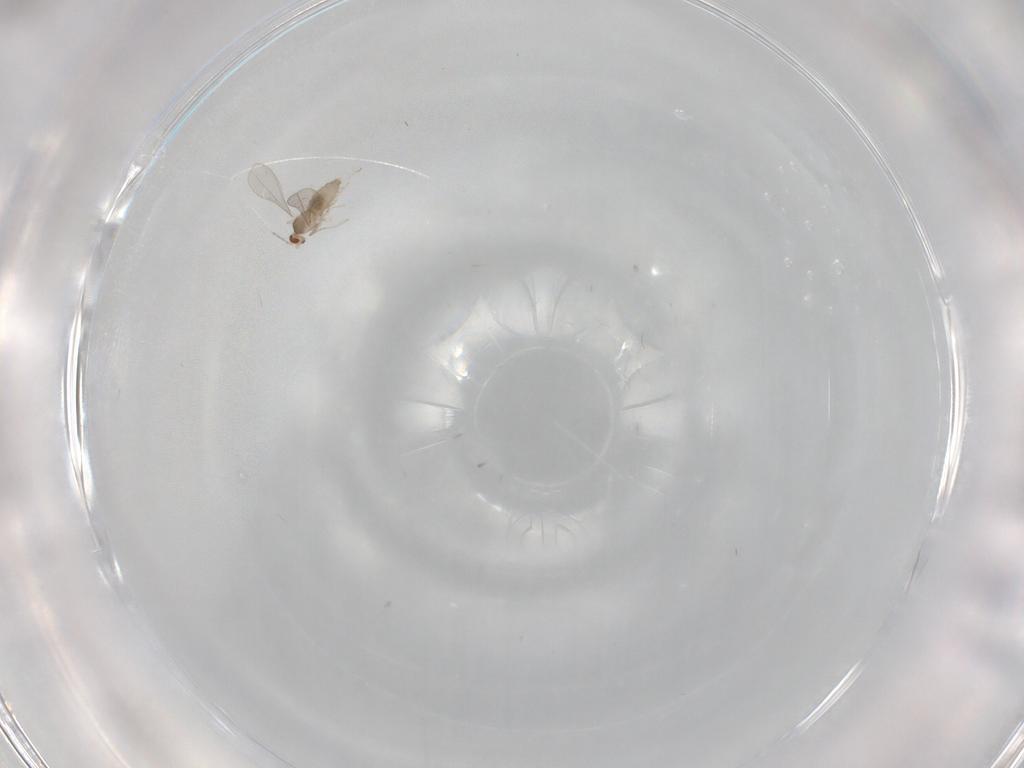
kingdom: Animalia
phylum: Arthropoda
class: Insecta
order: Diptera
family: Cecidomyiidae
